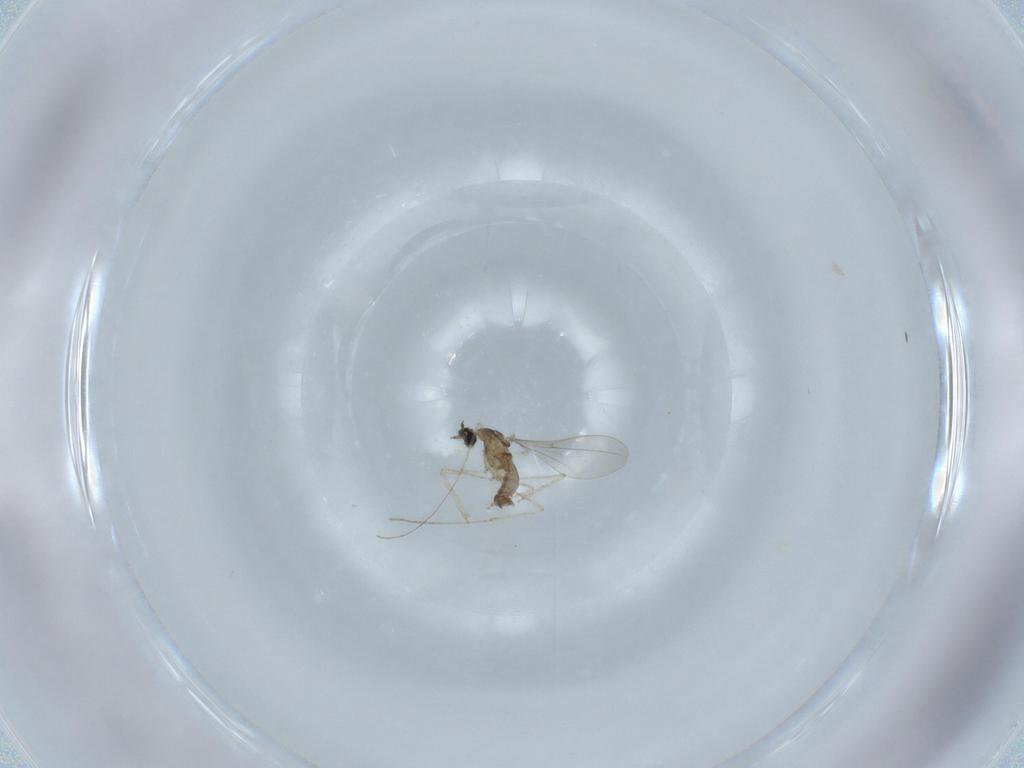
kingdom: Animalia
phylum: Arthropoda
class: Insecta
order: Diptera
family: Cecidomyiidae
